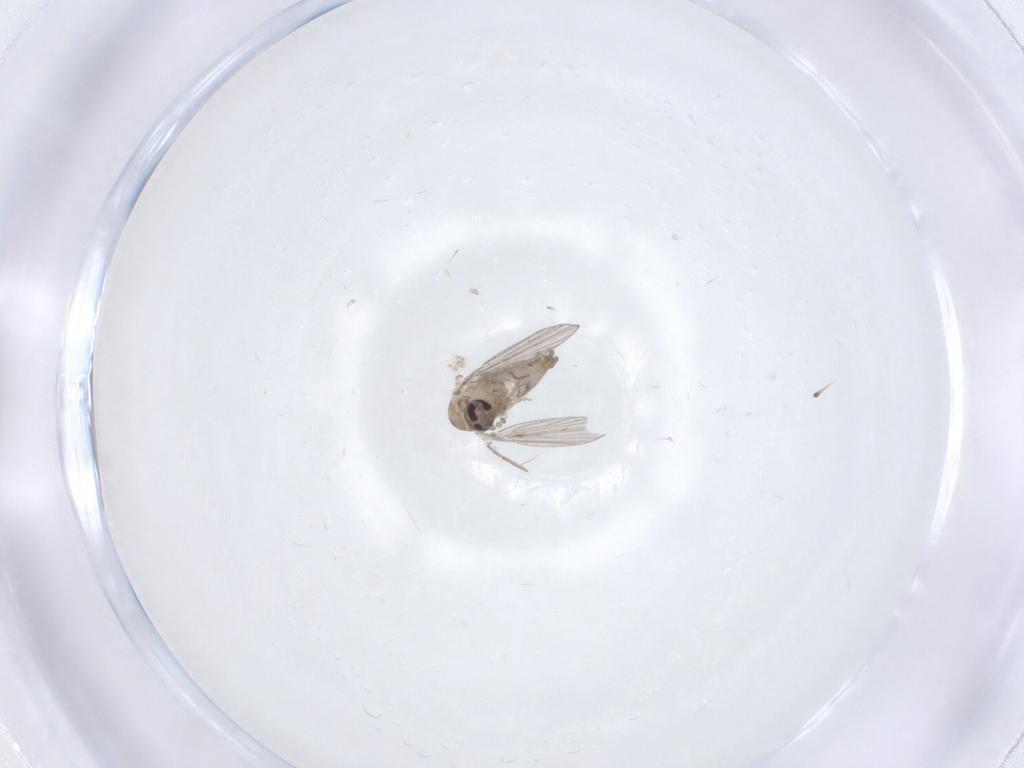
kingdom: Animalia
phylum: Arthropoda
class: Insecta
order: Diptera
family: Psychodidae
